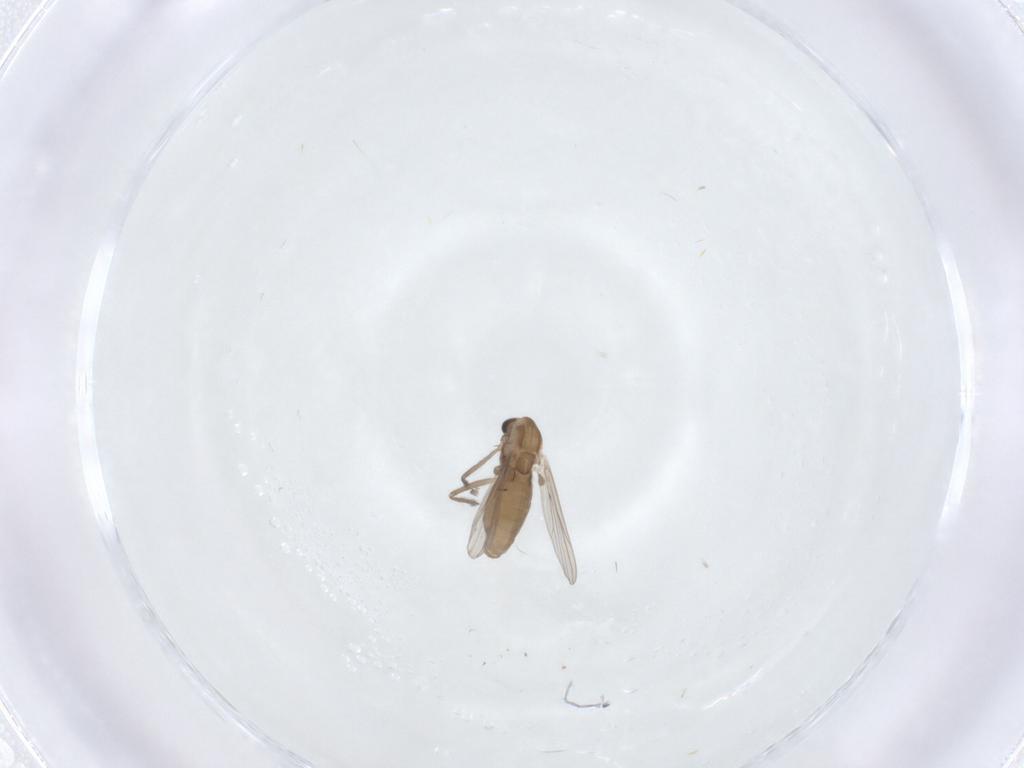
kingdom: Animalia
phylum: Arthropoda
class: Insecta
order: Diptera
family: Chironomidae
